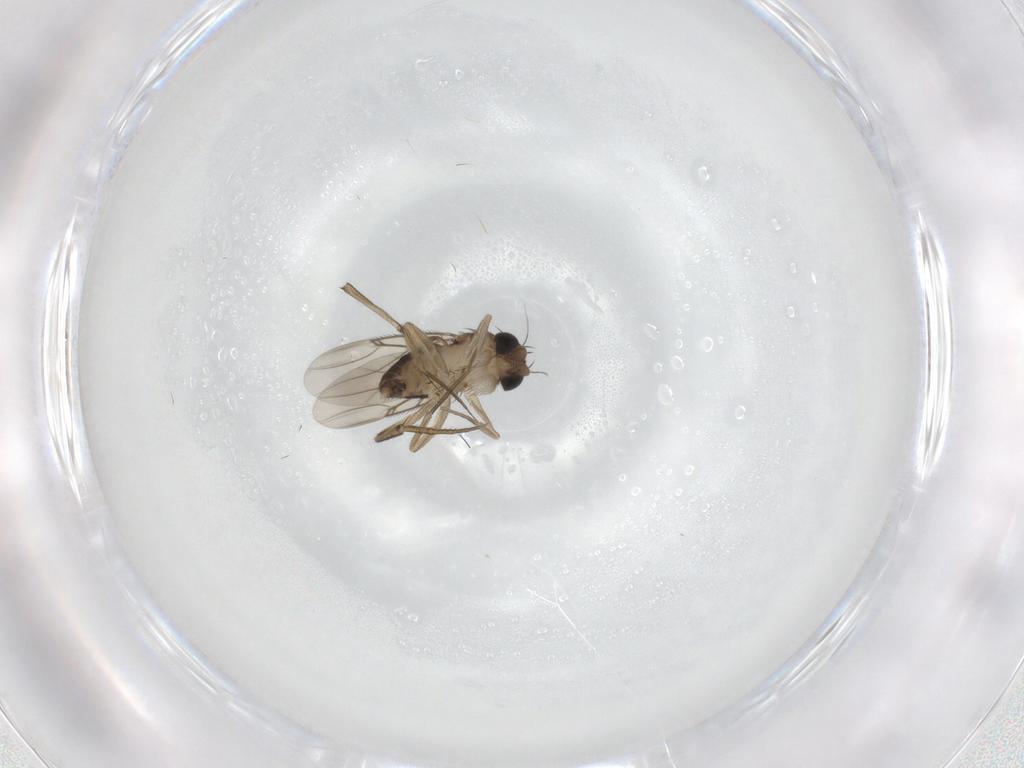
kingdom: Animalia
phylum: Arthropoda
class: Insecta
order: Diptera
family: Phoridae
